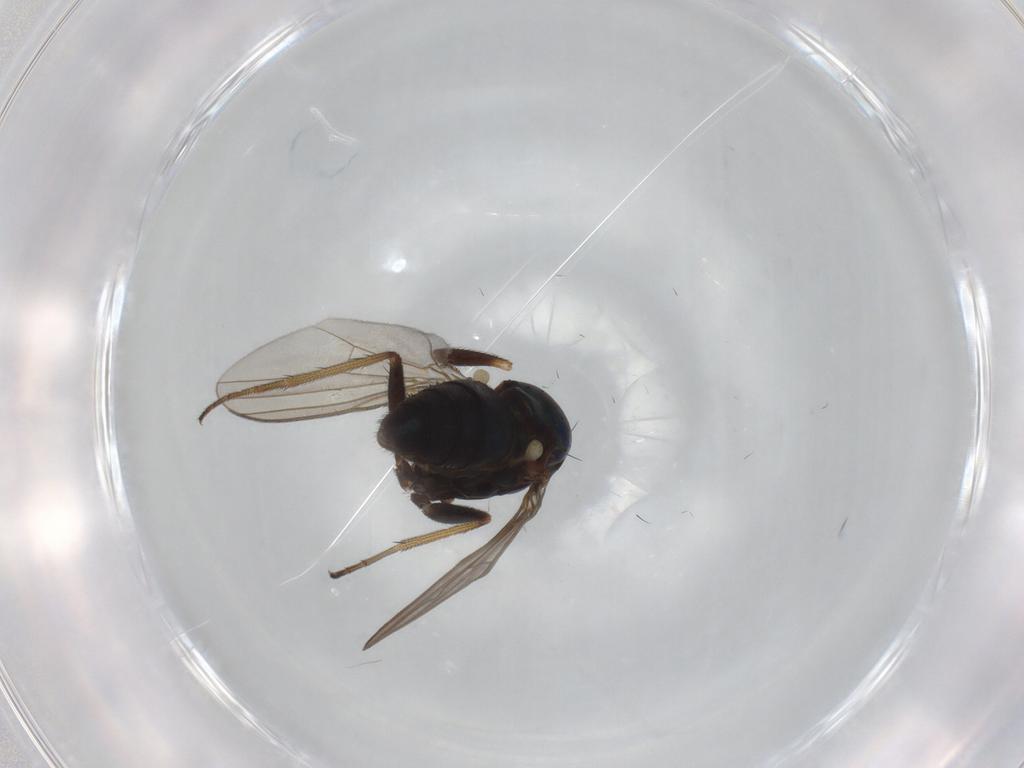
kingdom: Animalia
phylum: Arthropoda
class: Insecta
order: Diptera
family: Dolichopodidae
